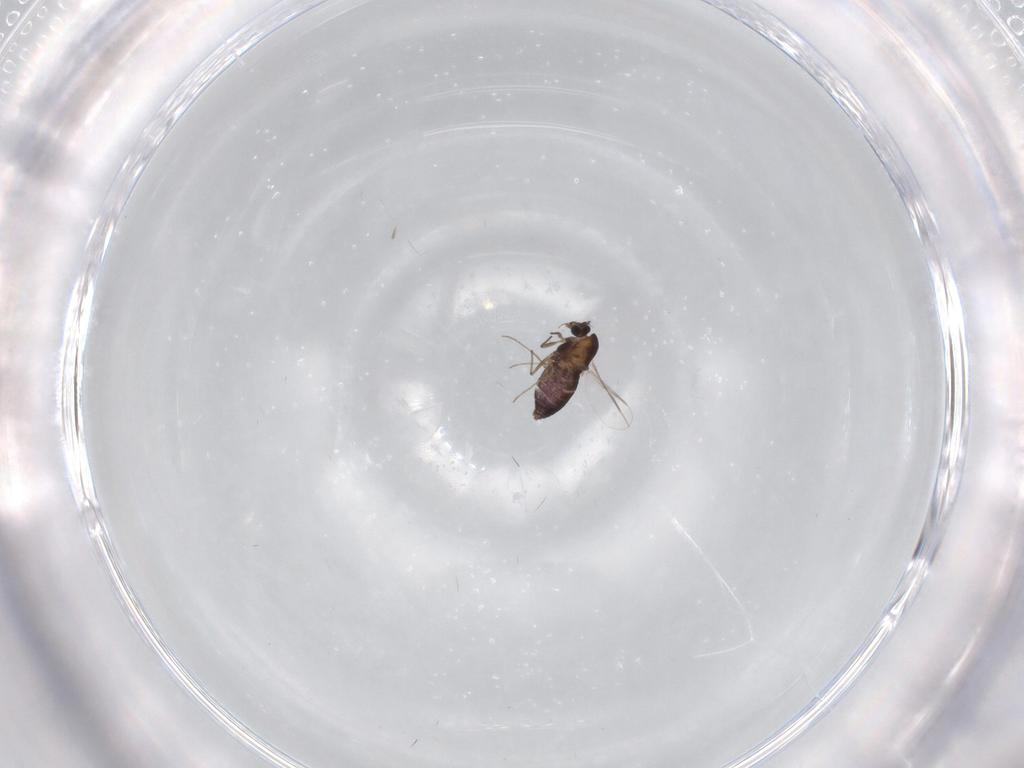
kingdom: Animalia
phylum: Arthropoda
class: Insecta
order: Diptera
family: Chironomidae
